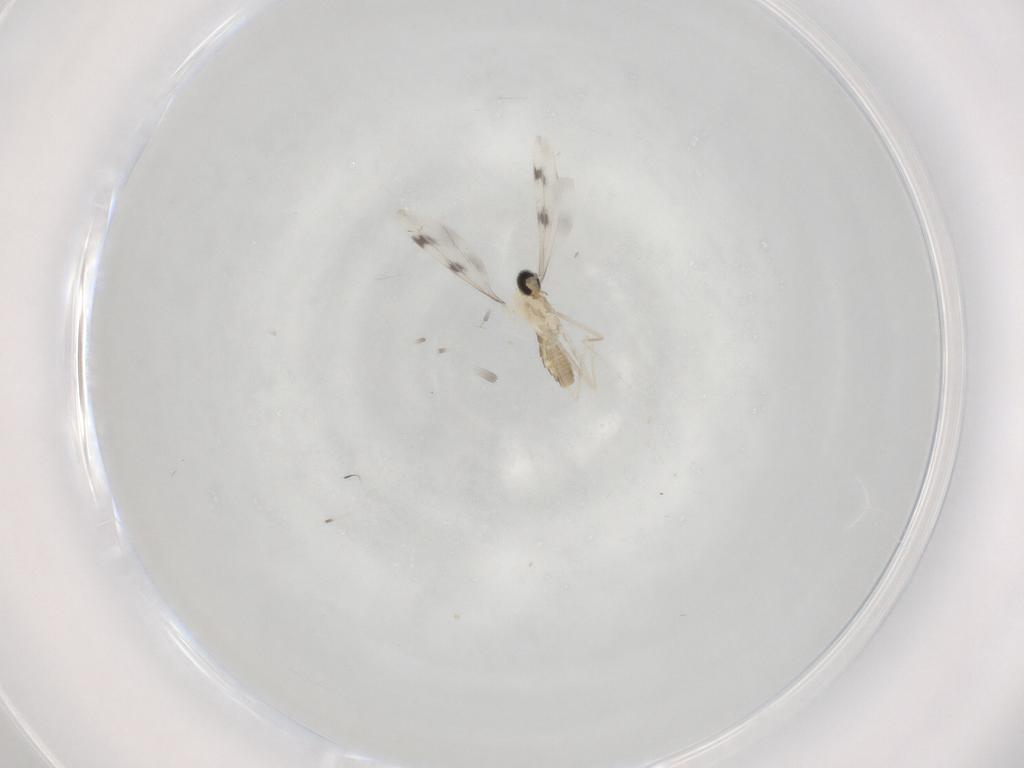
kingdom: Animalia
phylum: Arthropoda
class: Insecta
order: Diptera
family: Cecidomyiidae
